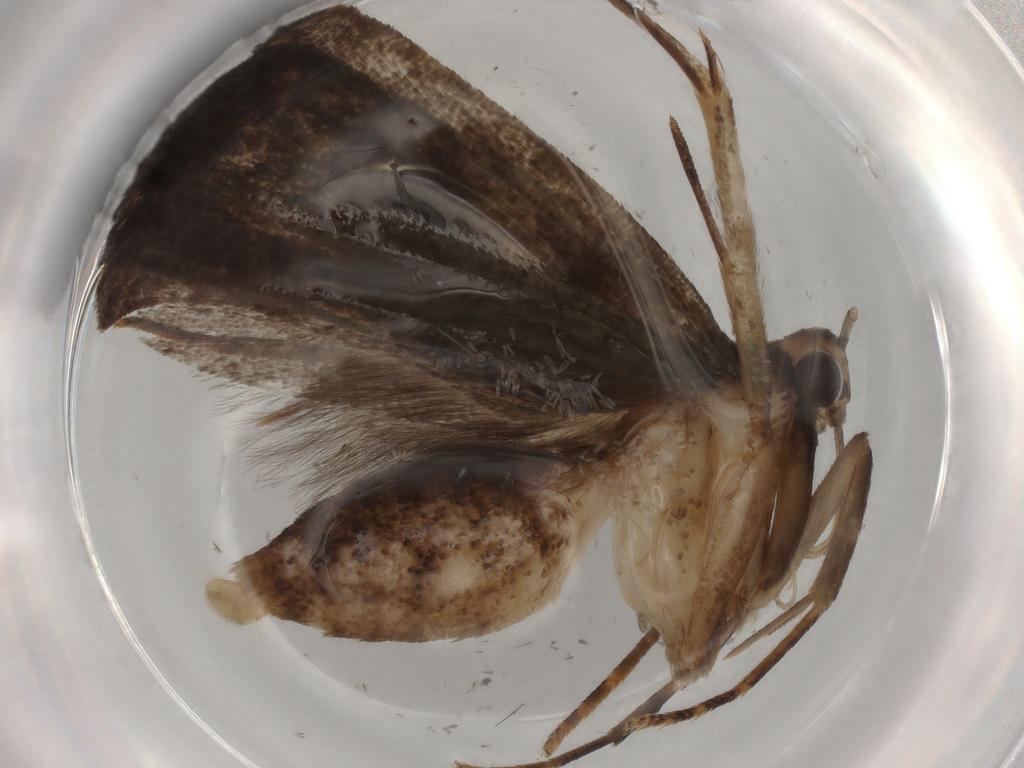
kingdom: Animalia
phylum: Arthropoda
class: Insecta
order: Lepidoptera
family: Gelechiidae
